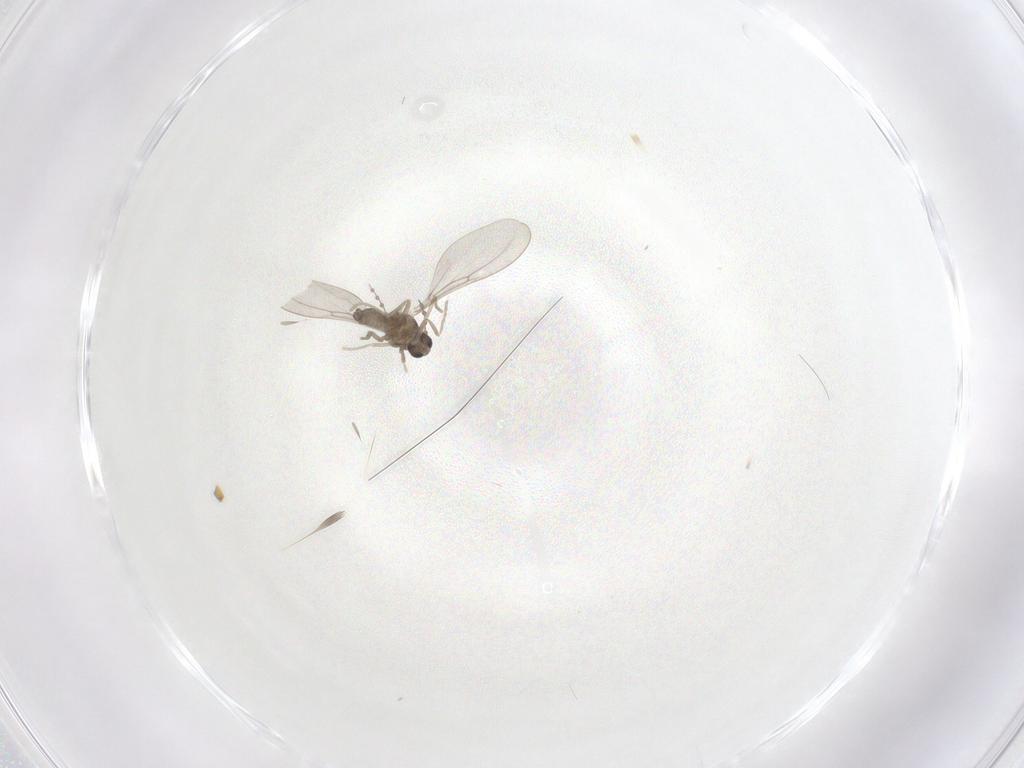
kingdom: Animalia
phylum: Arthropoda
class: Insecta
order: Diptera
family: Cecidomyiidae
